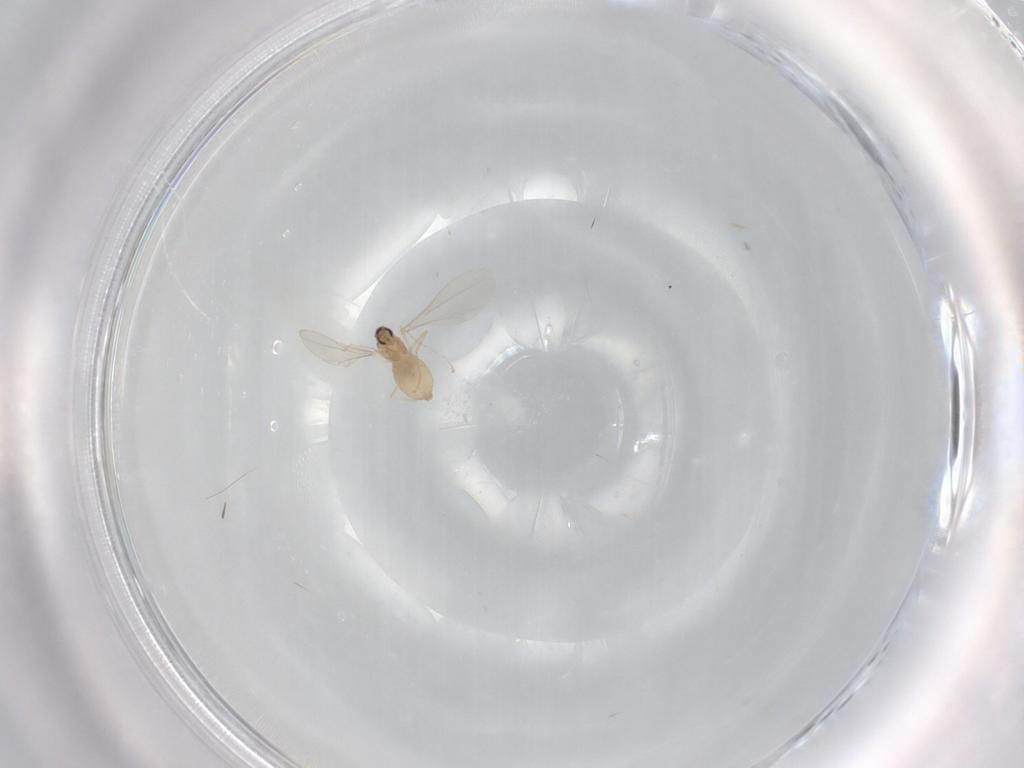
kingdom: Animalia
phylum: Arthropoda
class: Insecta
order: Diptera
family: Cecidomyiidae
